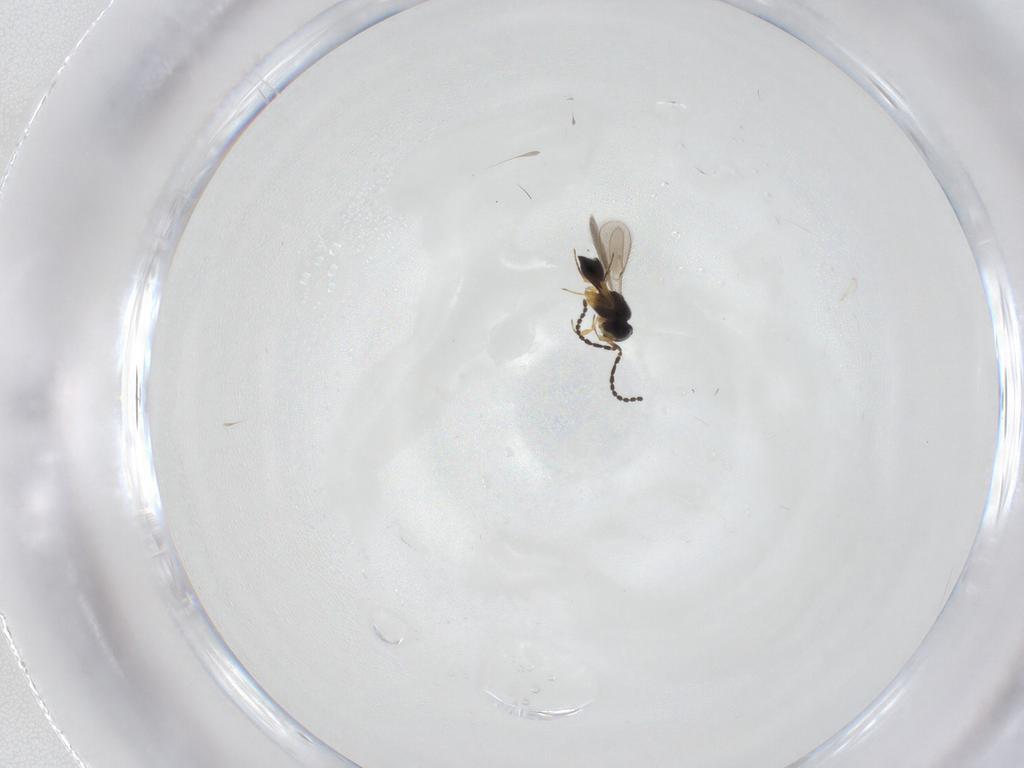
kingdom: Animalia
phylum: Arthropoda
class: Insecta
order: Hymenoptera
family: Scelionidae
